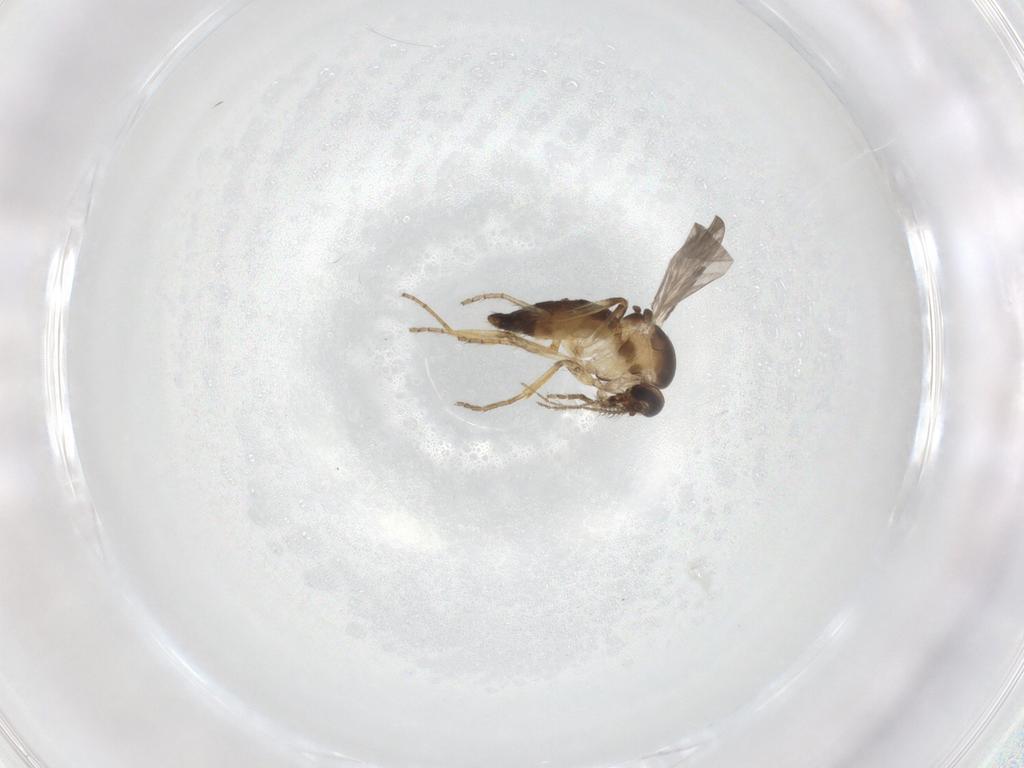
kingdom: Animalia
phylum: Arthropoda
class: Insecta
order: Diptera
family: Ceratopogonidae
